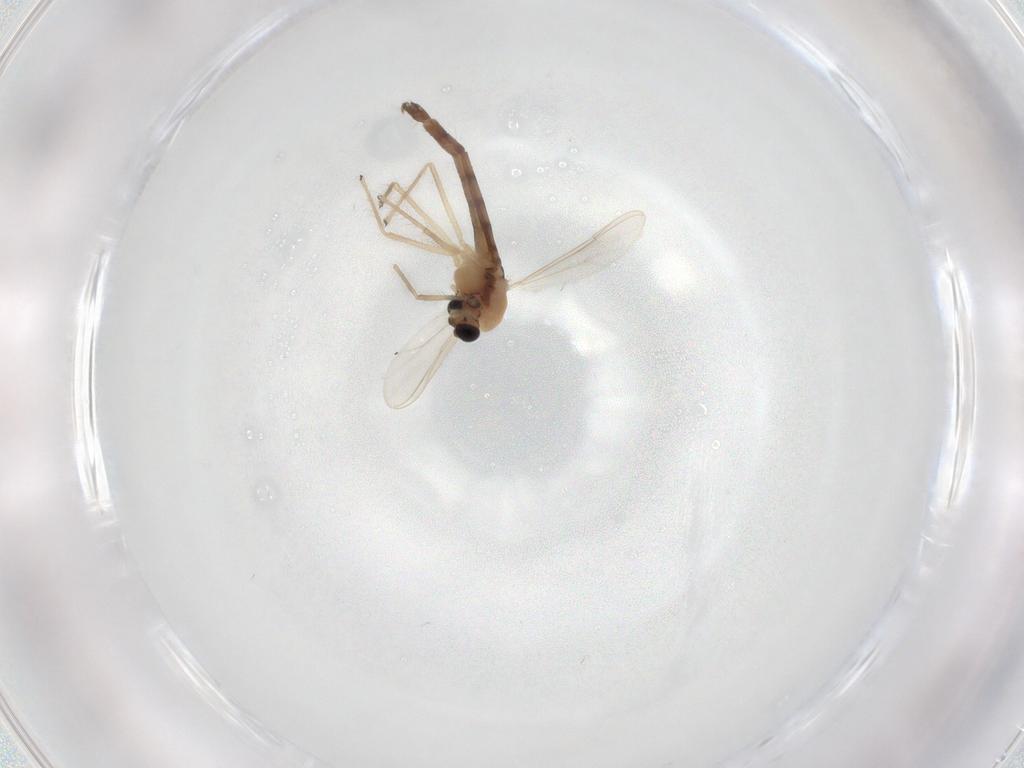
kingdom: Animalia
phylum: Arthropoda
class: Insecta
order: Diptera
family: Chironomidae
